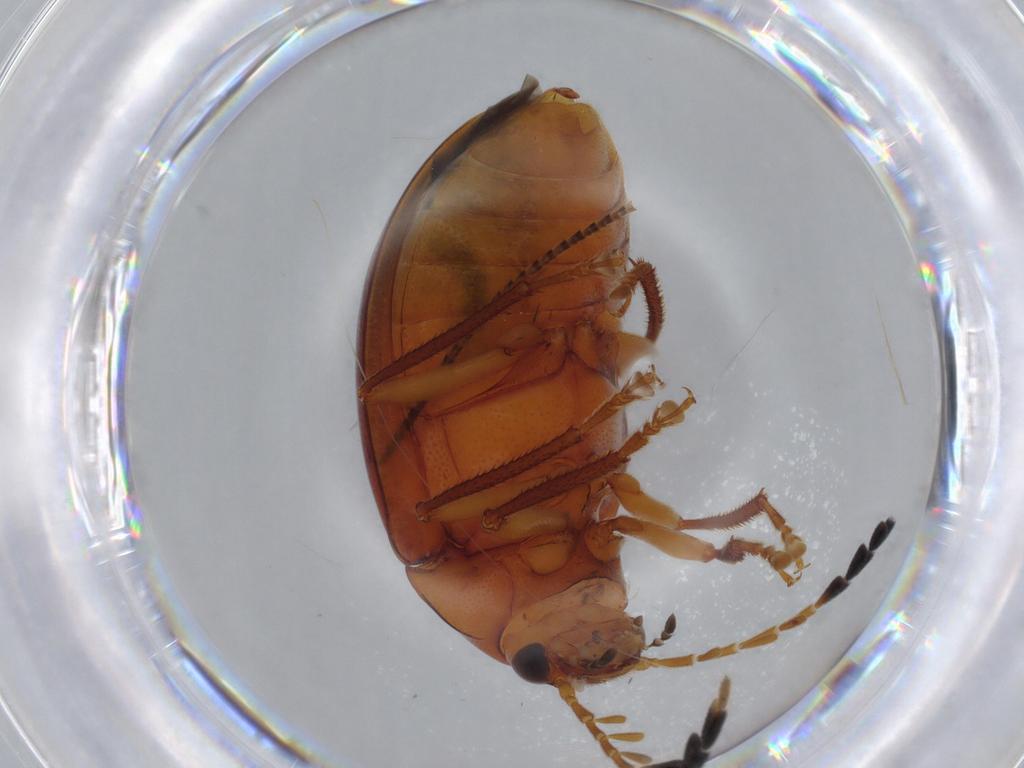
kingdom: Animalia
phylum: Arthropoda
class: Insecta
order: Coleoptera
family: Ptilodactylidae
